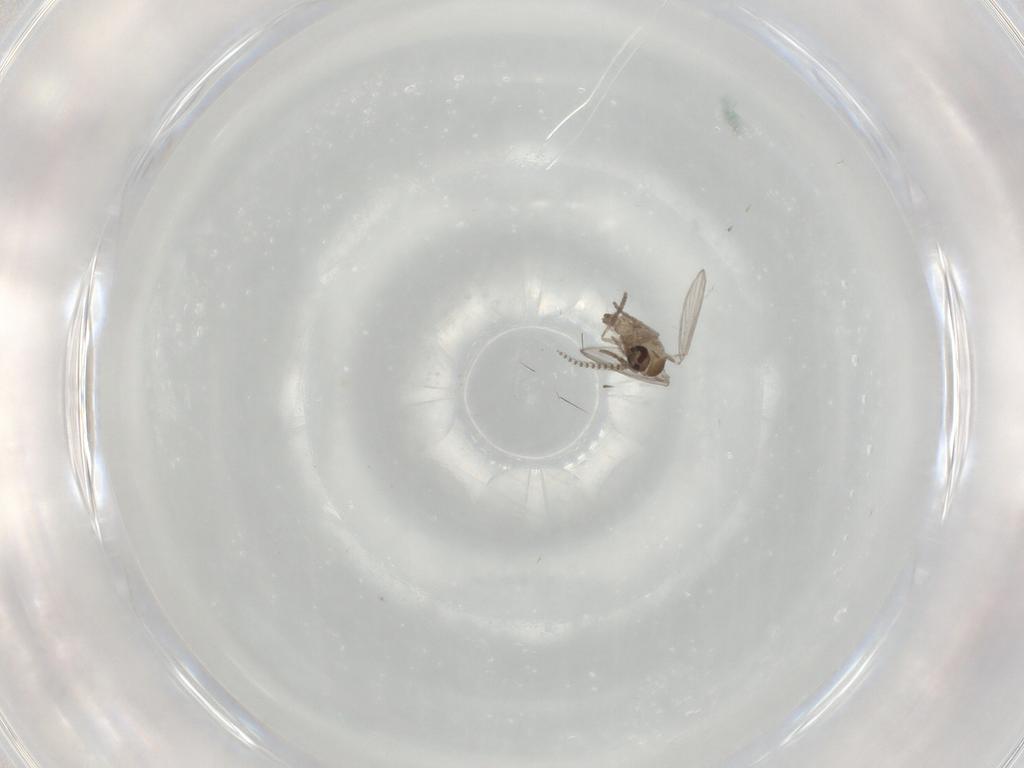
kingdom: Animalia
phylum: Arthropoda
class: Insecta
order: Diptera
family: Psychodidae
